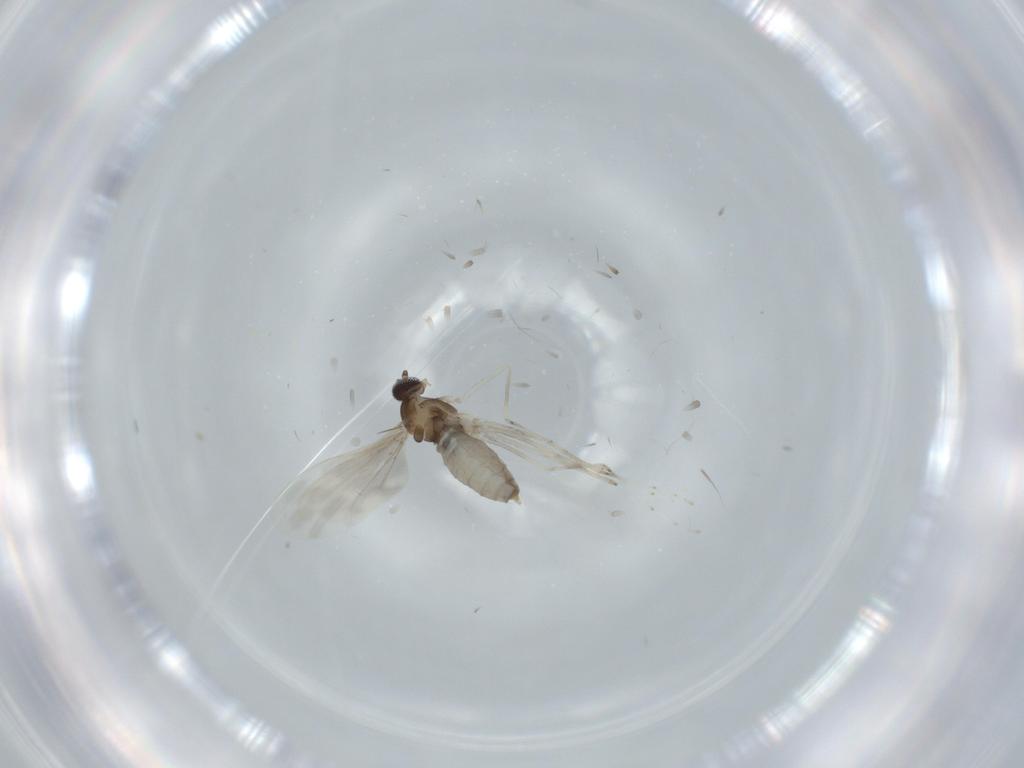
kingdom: Animalia
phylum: Arthropoda
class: Insecta
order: Diptera
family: Cecidomyiidae
